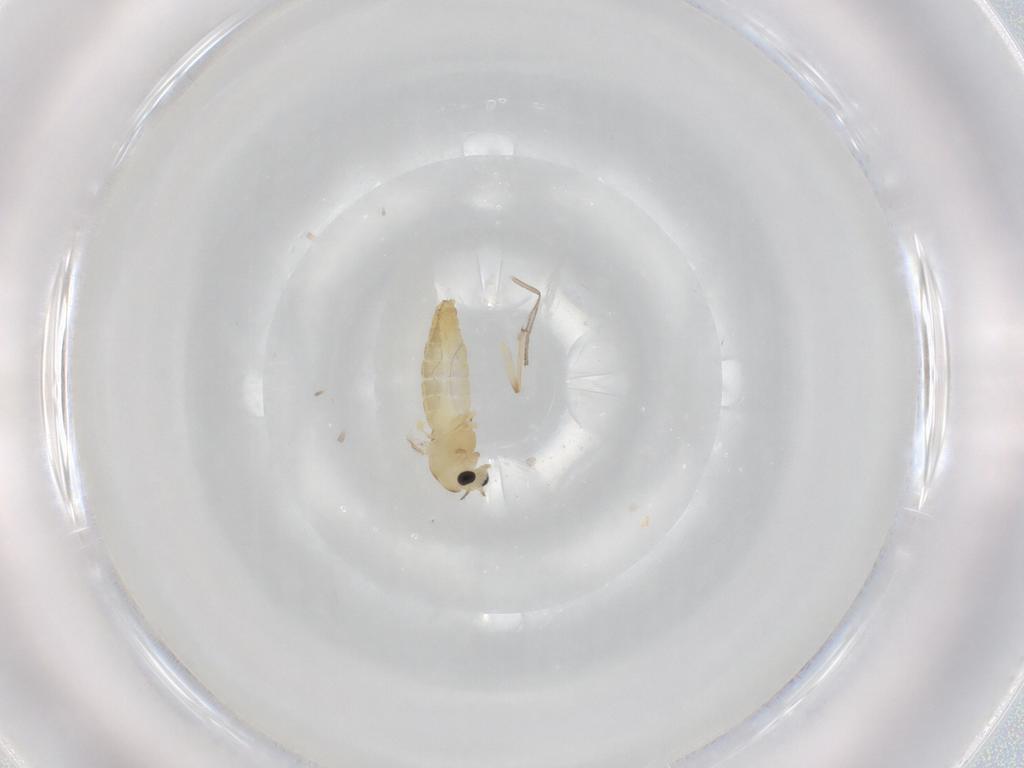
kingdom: Animalia
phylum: Arthropoda
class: Insecta
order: Diptera
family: Chironomidae
